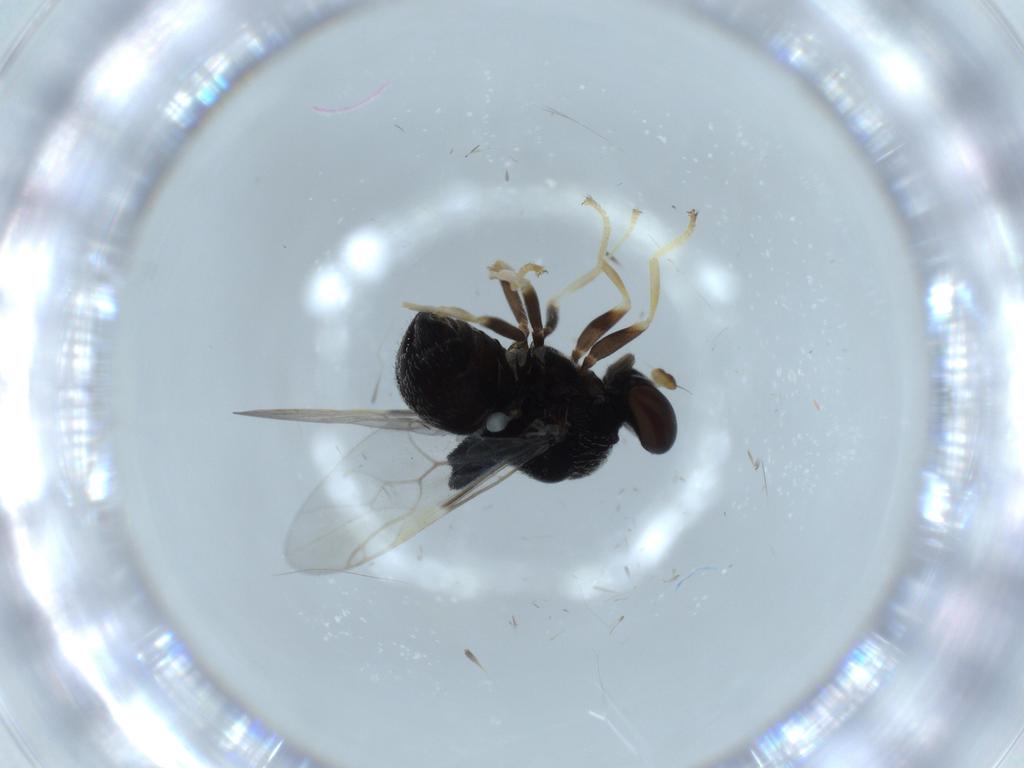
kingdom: Animalia
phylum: Arthropoda
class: Insecta
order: Diptera
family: Stratiomyidae
